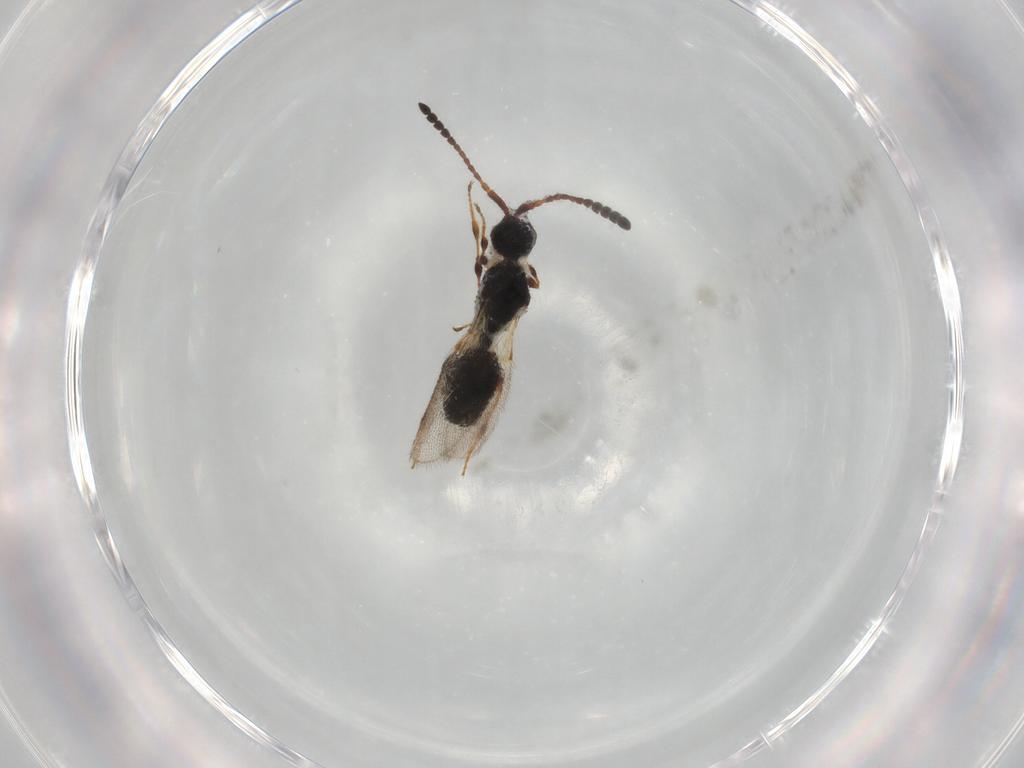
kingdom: Animalia
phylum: Arthropoda
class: Insecta
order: Hymenoptera
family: Diapriidae
